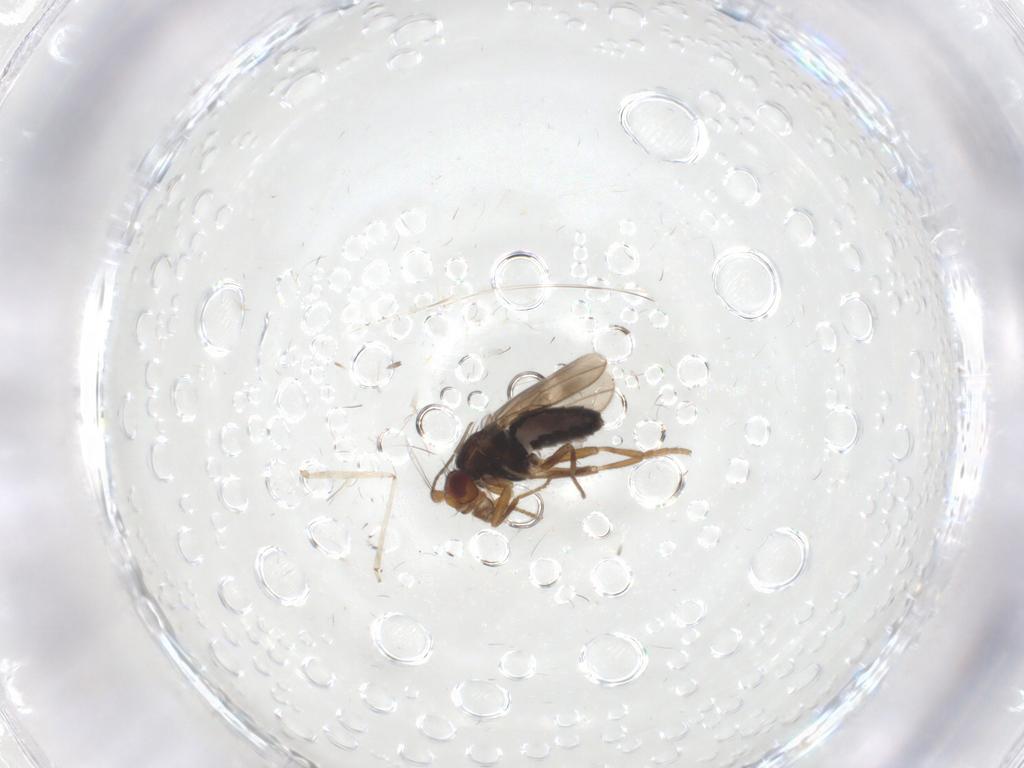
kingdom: Animalia
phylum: Arthropoda
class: Insecta
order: Diptera
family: Sphaeroceridae
